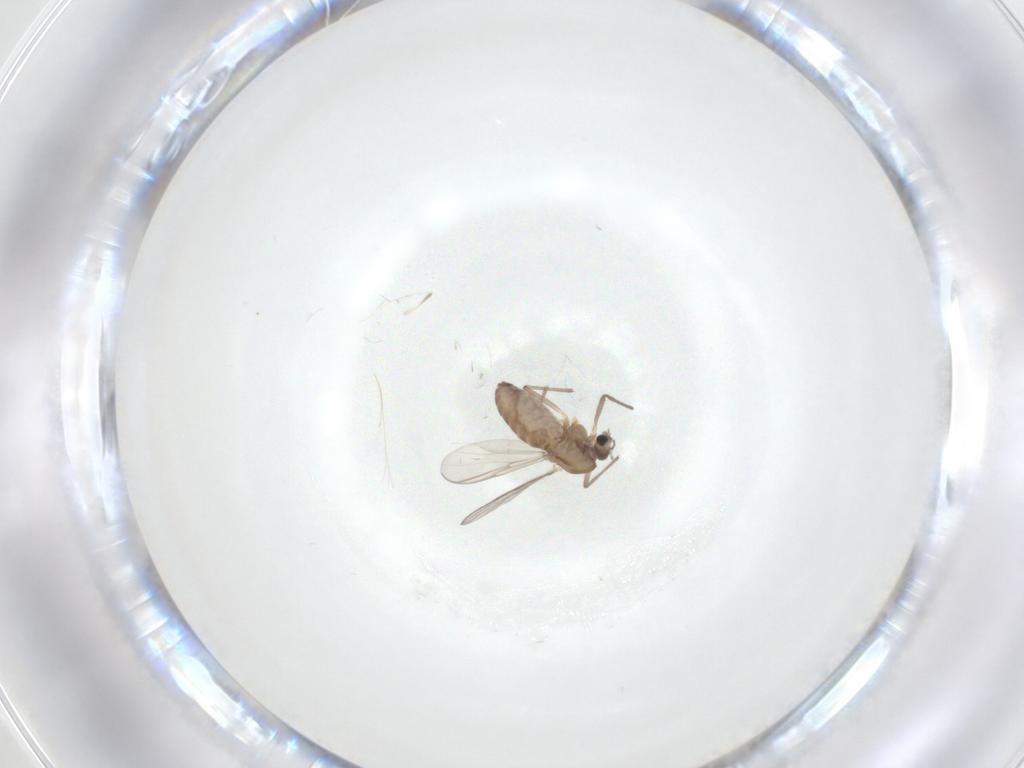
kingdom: Animalia
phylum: Arthropoda
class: Insecta
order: Diptera
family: Chironomidae
